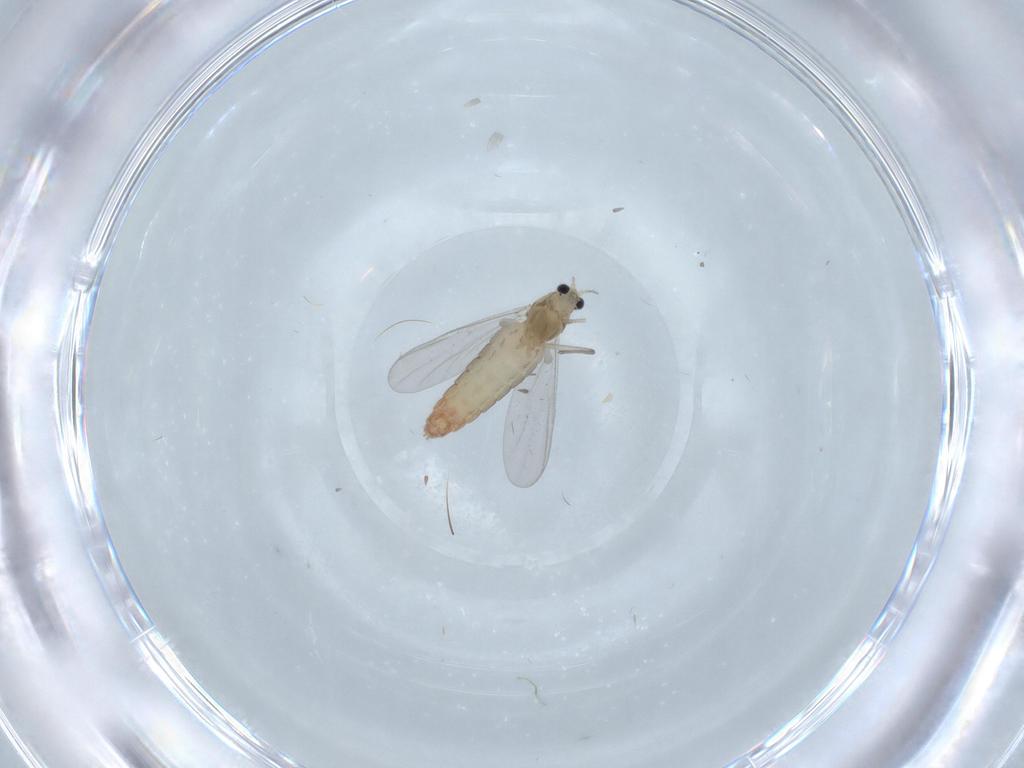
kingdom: Animalia
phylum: Arthropoda
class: Insecta
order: Diptera
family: Chironomidae
